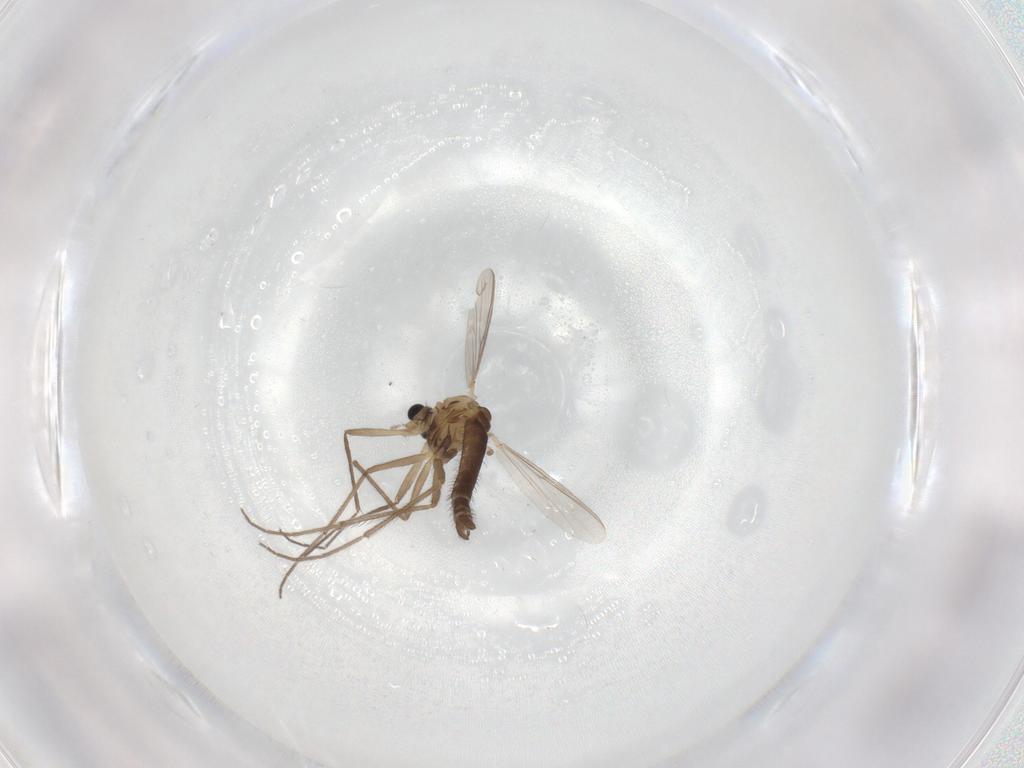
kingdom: Animalia
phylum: Arthropoda
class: Insecta
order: Diptera
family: Chironomidae
